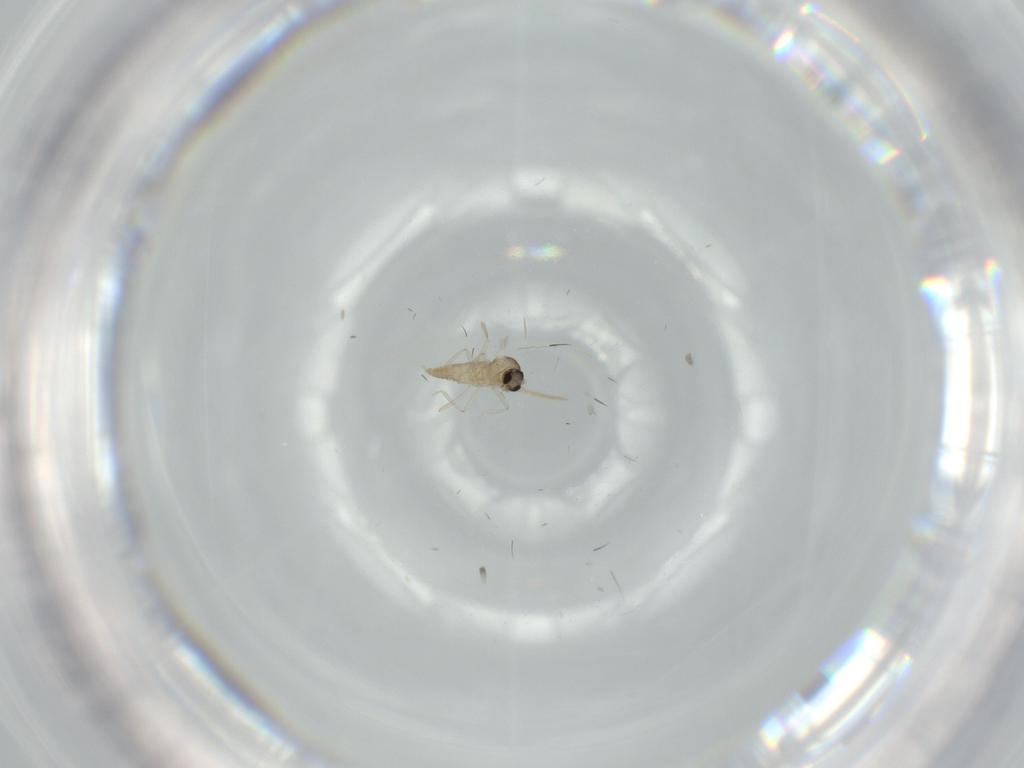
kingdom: Animalia
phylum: Arthropoda
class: Insecta
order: Diptera
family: Cecidomyiidae
